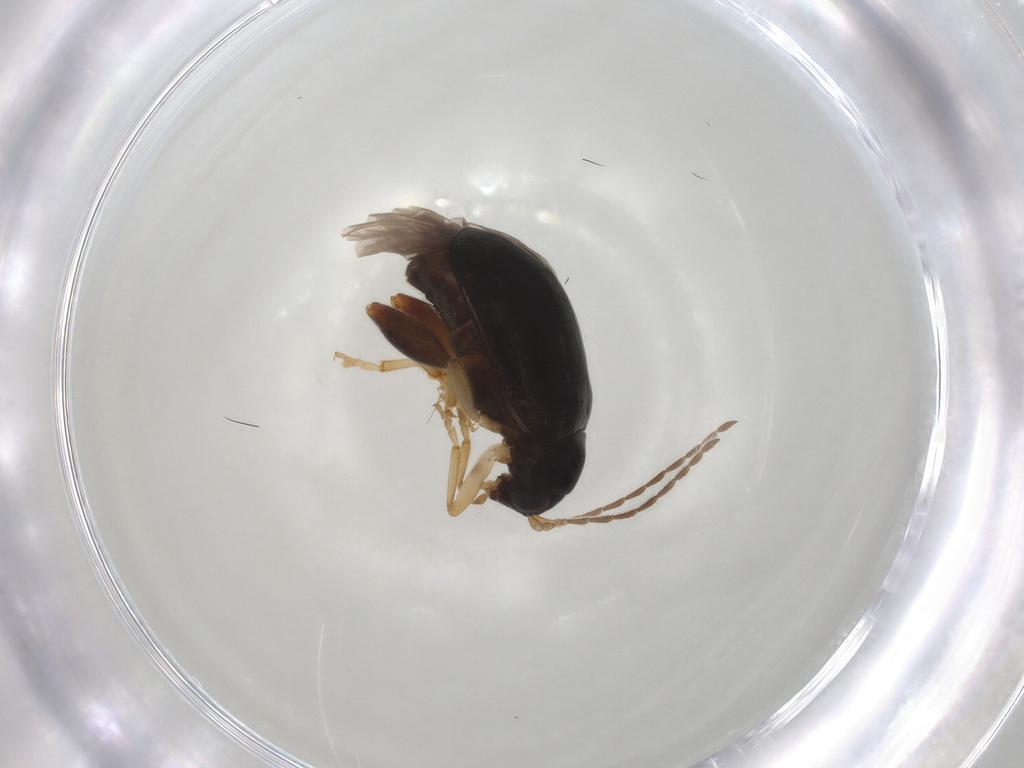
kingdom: Animalia
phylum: Arthropoda
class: Insecta
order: Coleoptera
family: Chrysomelidae
